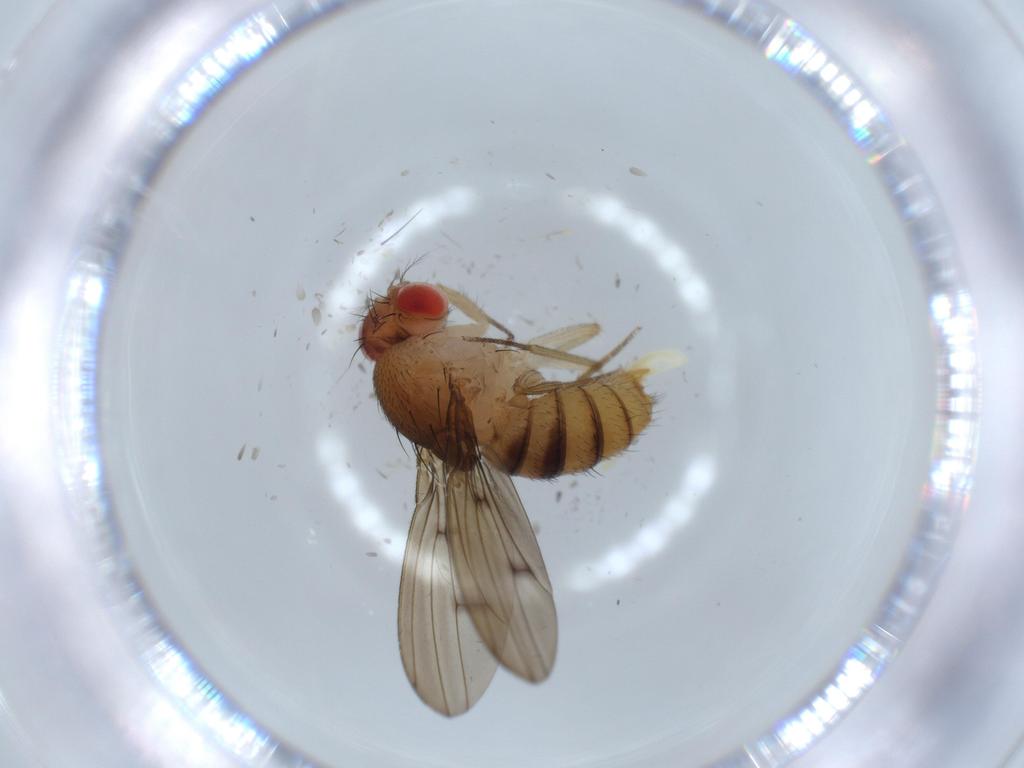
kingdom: Animalia
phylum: Arthropoda
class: Insecta
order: Diptera
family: Drosophilidae
